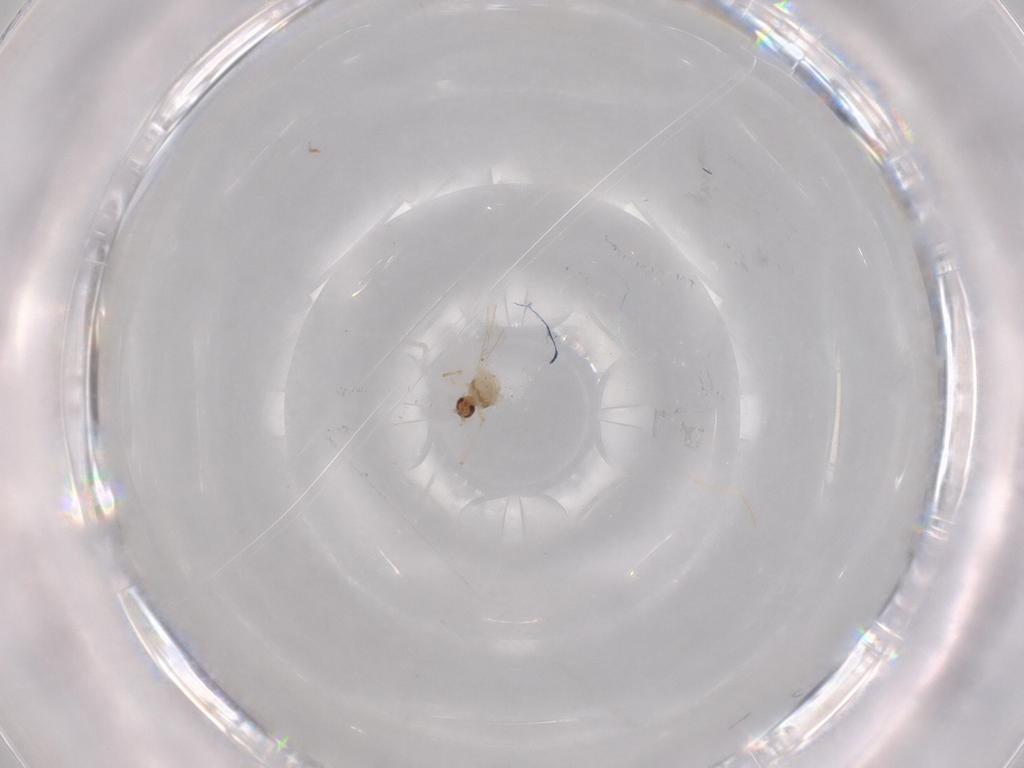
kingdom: Animalia
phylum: Arthropoda
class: Insecta
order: Diptera
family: Cecidomyiidae
